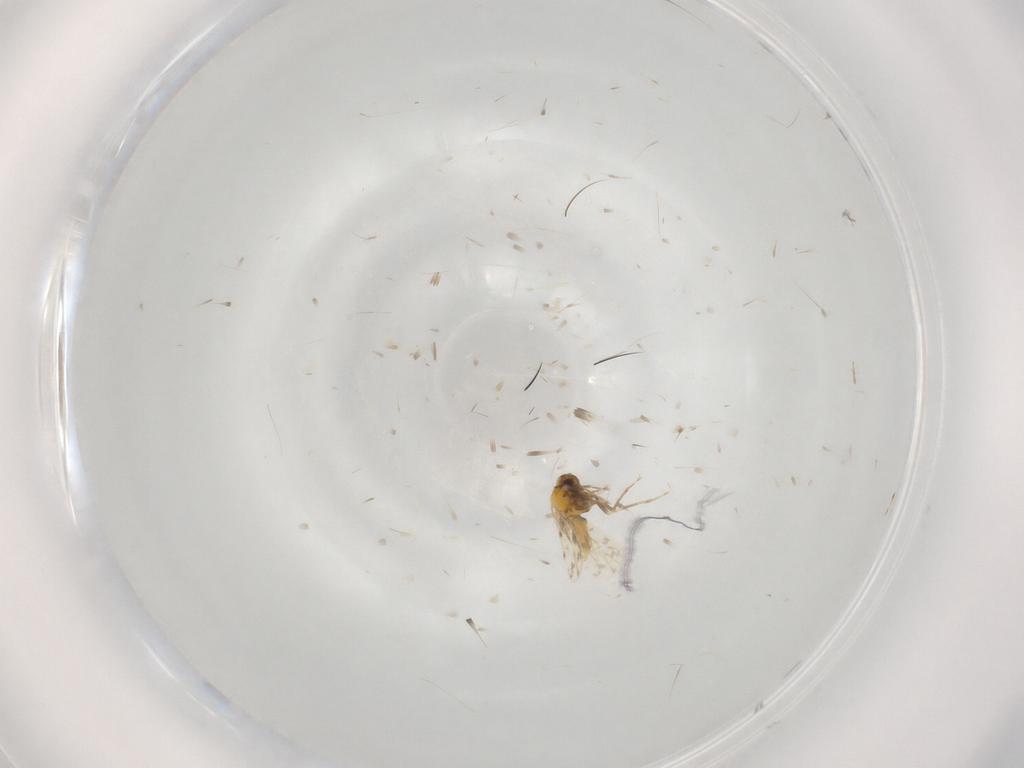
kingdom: Animalia
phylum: Arthropoda
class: Insecta
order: Hemiptera
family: Aleyrodidae
